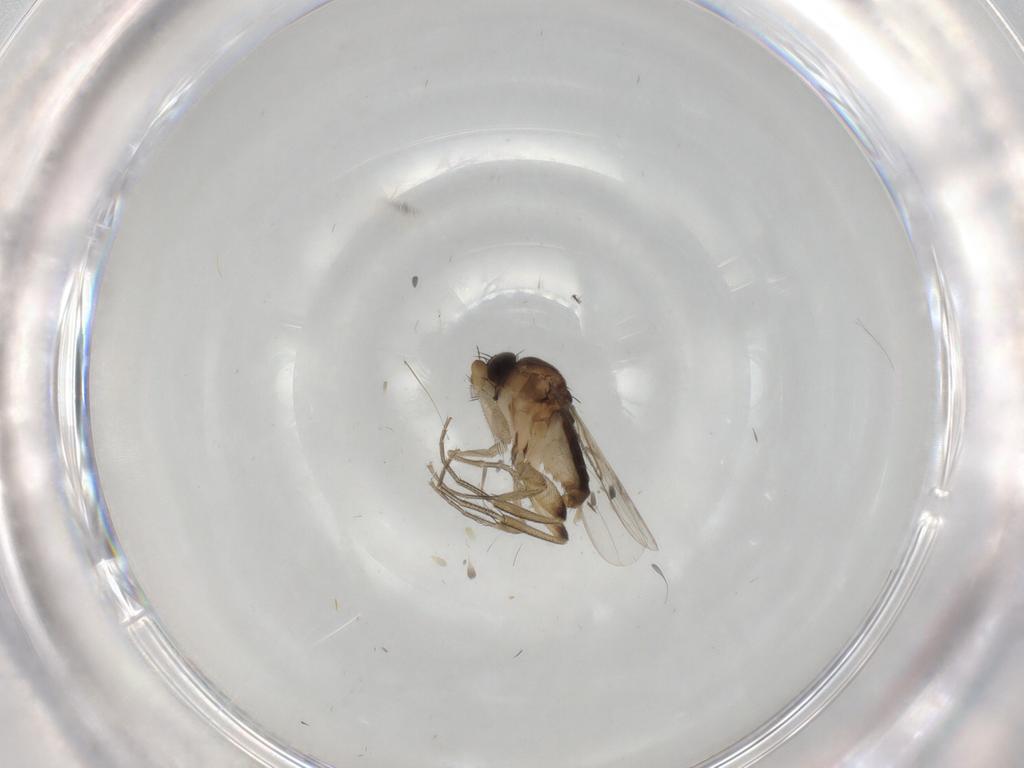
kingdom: Animalia
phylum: Arthropoda
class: Insecta
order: Diptera
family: Phoridae
